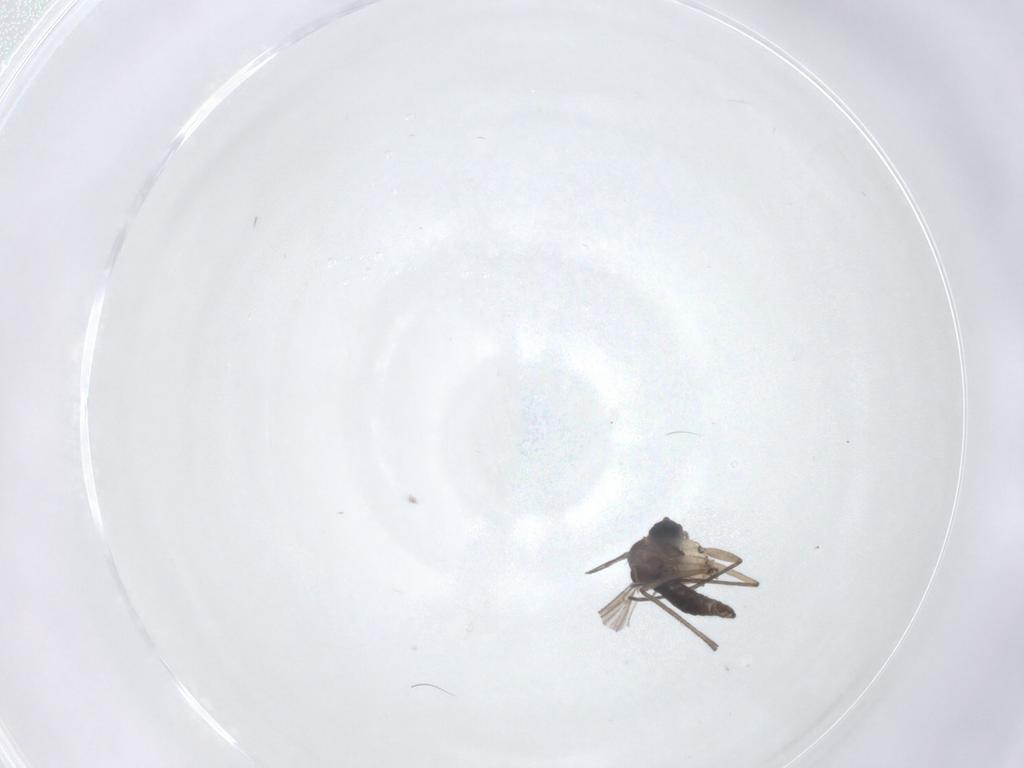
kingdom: Animalia
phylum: Arthropoda
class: Insecta
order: Diptera
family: Sciaridae
